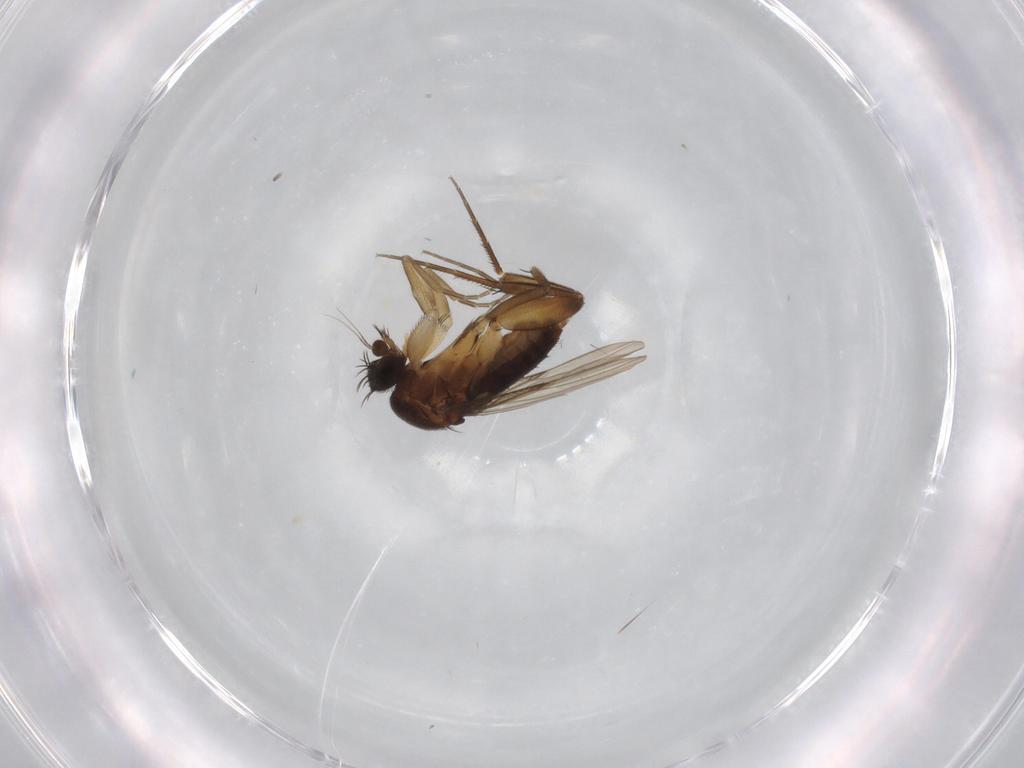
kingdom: Animalia
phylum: Arthropoda
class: Insecta
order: Diptera
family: Phoridae
